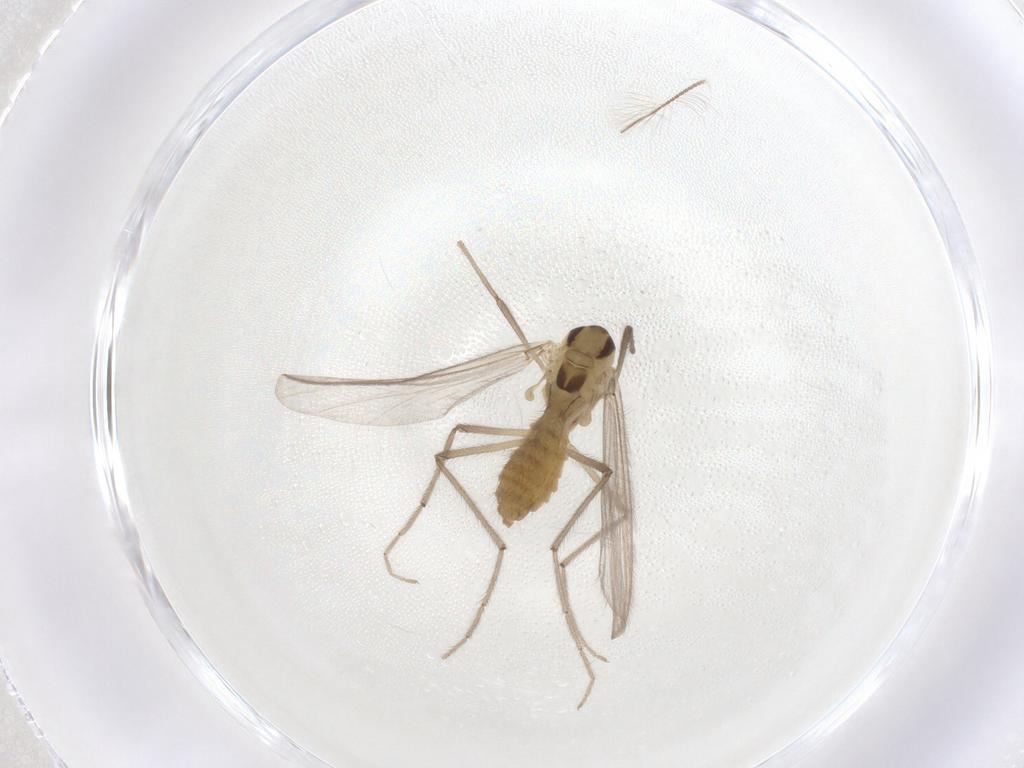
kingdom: Animalia
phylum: Arthropoda
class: Insecta
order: Diptera
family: Chironomidae
